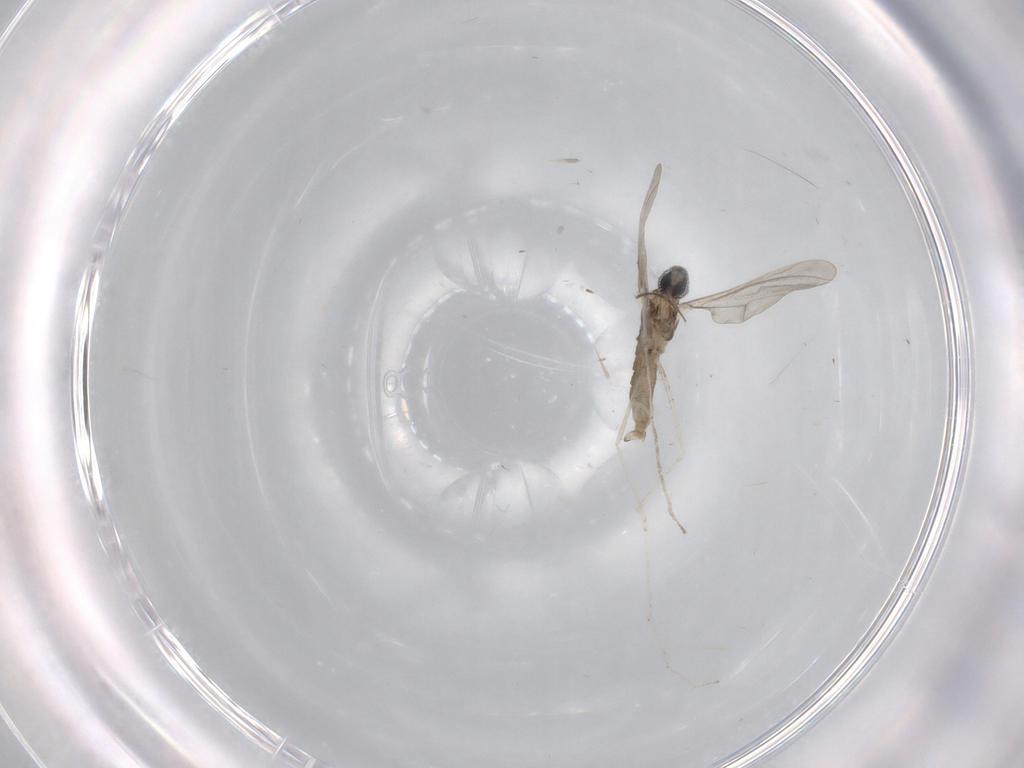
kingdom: Animalia
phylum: Arthropoda
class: Insecta
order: Diptera
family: Cecidomyiidae
